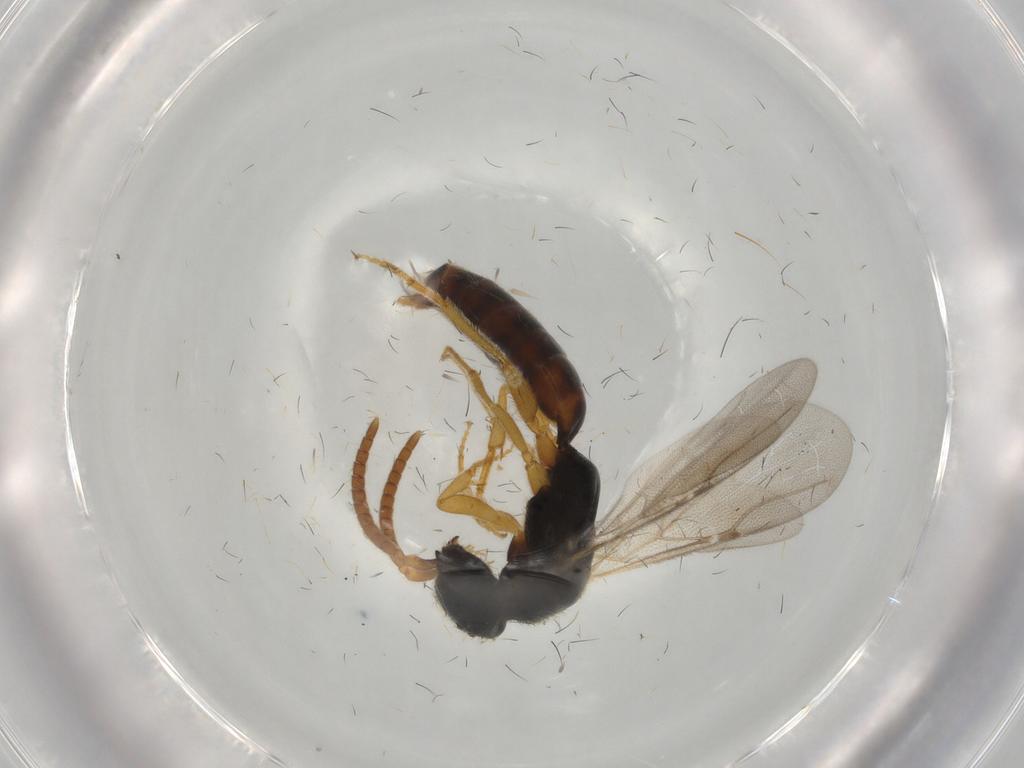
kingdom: Animalia
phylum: Arthropoda
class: Insecta
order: Hymenoptera
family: Bethylidae
